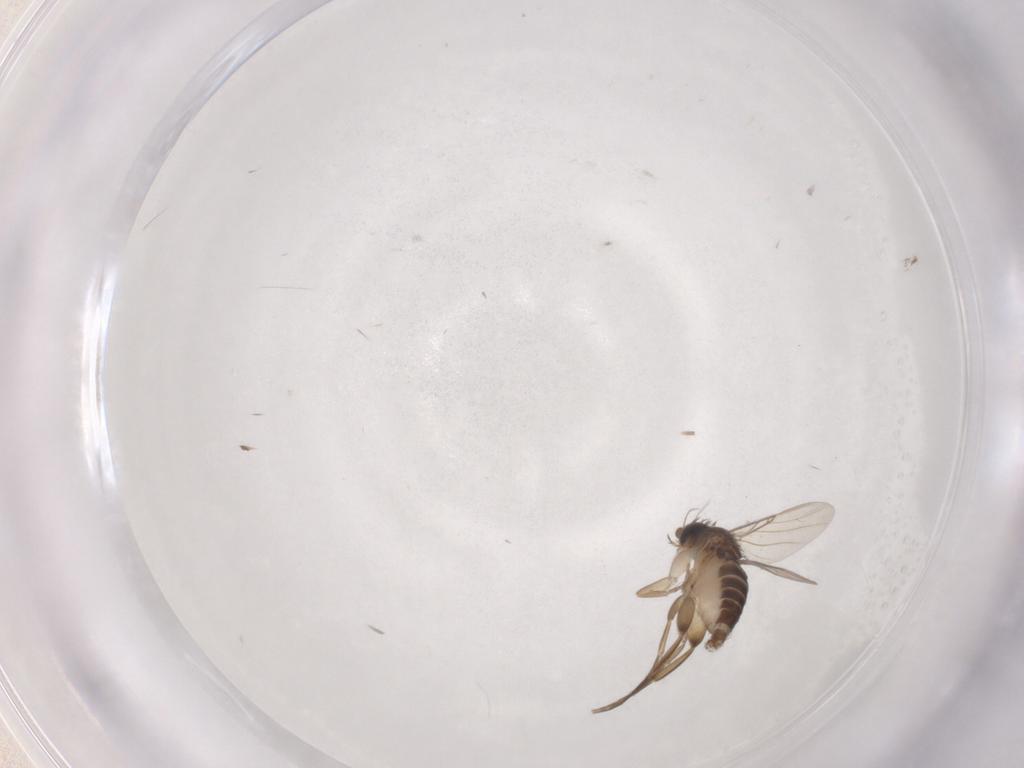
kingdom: Animalia
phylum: Arthropoda
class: Insecta
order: Diptera
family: Phoridae
